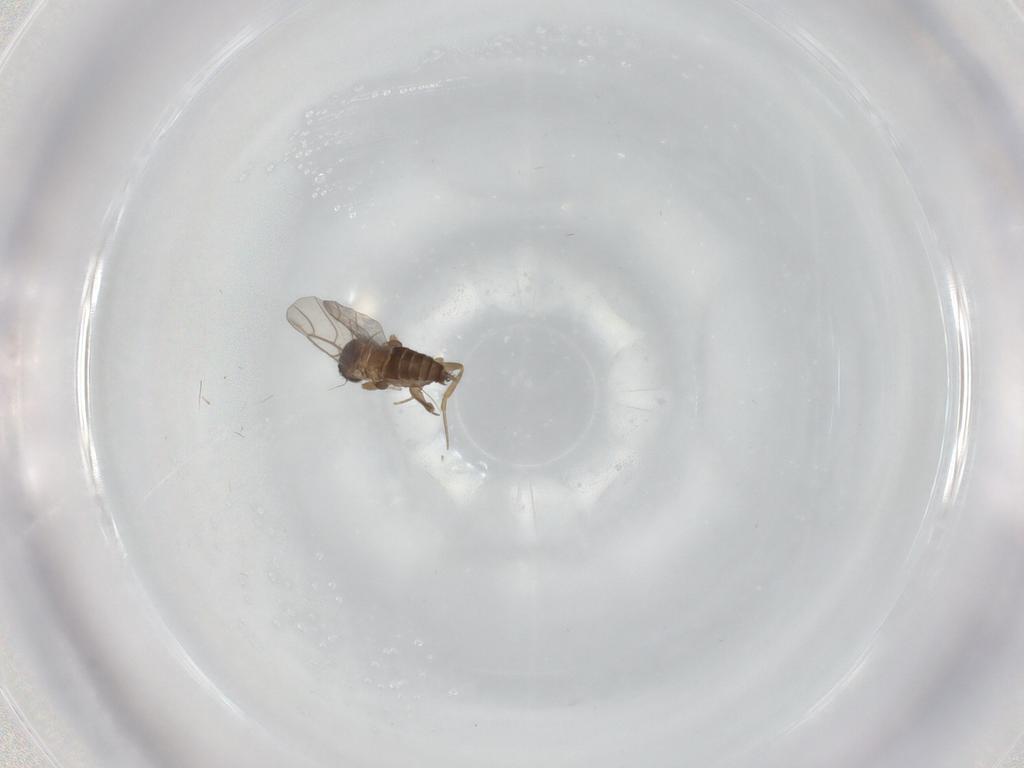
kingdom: Animalia
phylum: Arthropoda
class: Insecta
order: Diptera
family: Phoridae
